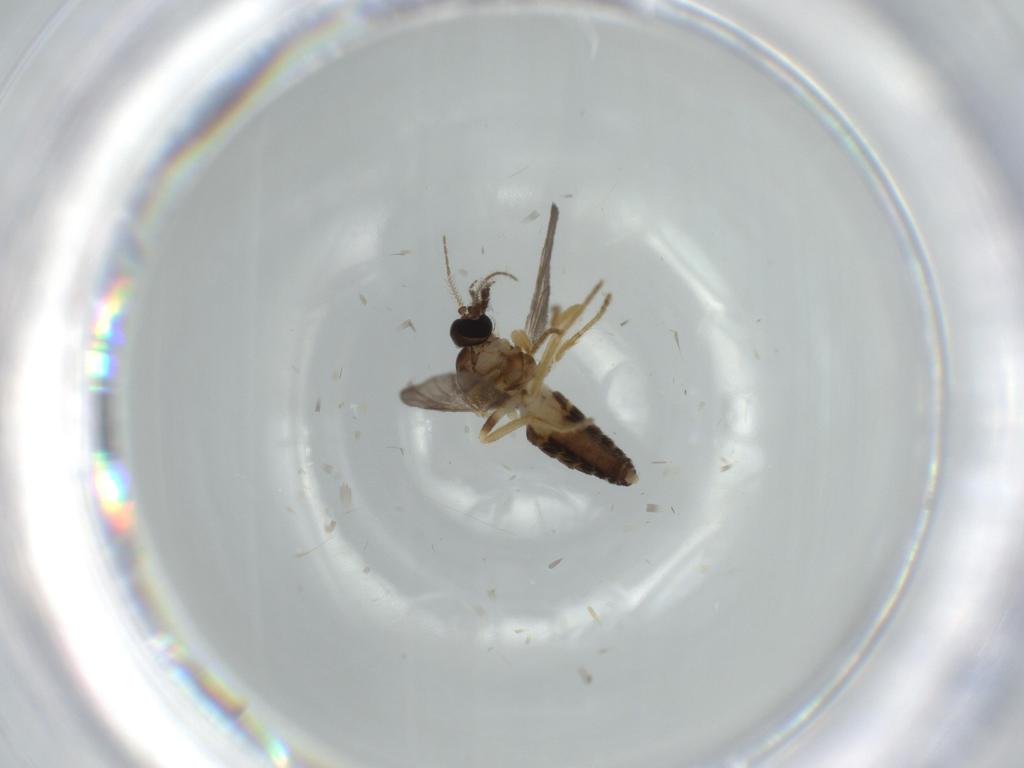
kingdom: Animalia
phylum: Arthropoda
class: Insecta
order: Diptera
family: Ceratopogonidae
